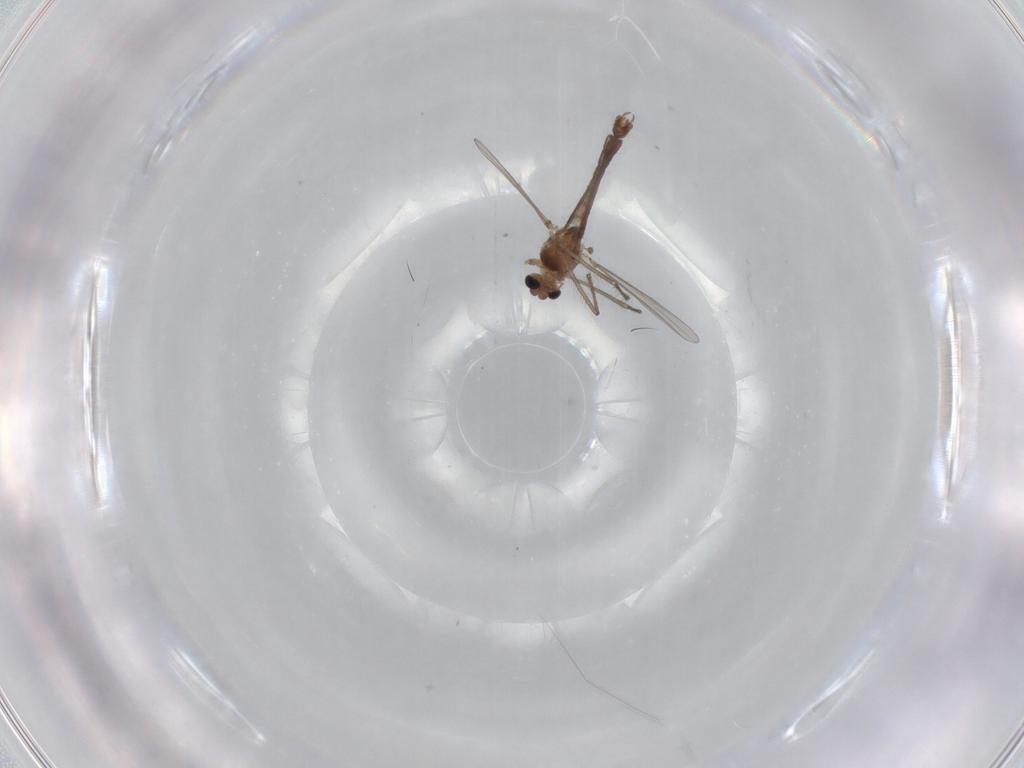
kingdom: Animalia
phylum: Arthropoda
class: Insecta
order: Diptera
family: Chironomidae
